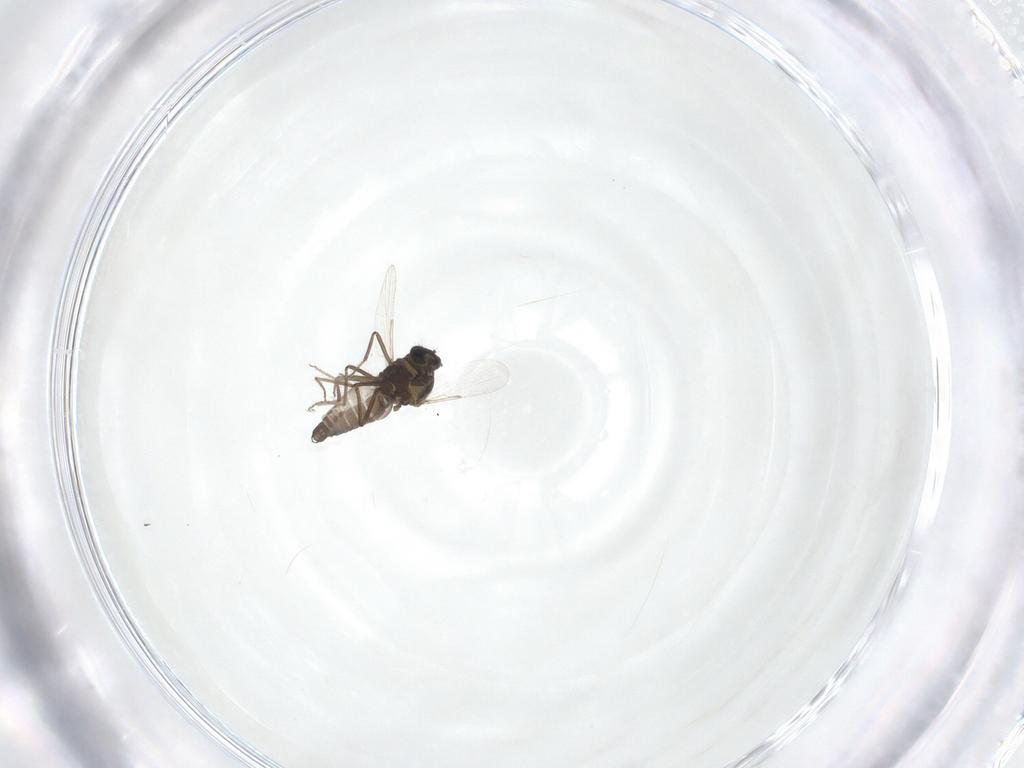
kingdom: Animalia
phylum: Arthropoda
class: Insecta
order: Diptera
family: Ceratopogonidae
